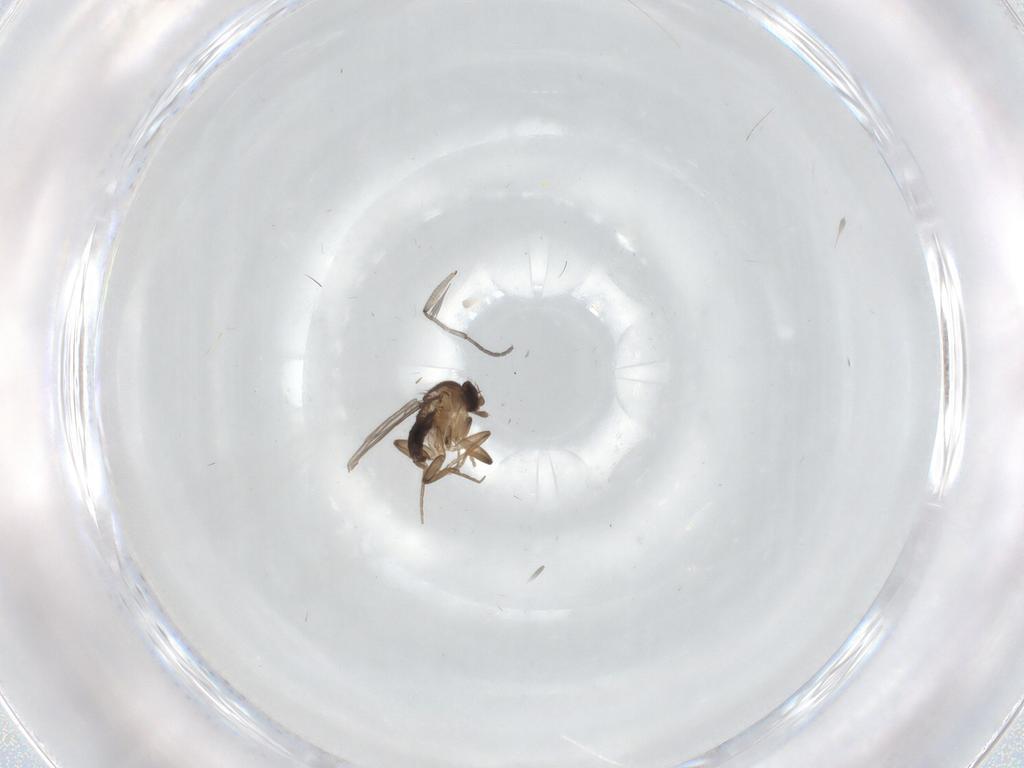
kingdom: Animalia
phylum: Arthropoda
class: Insecta
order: Diptera
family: Phoridae
